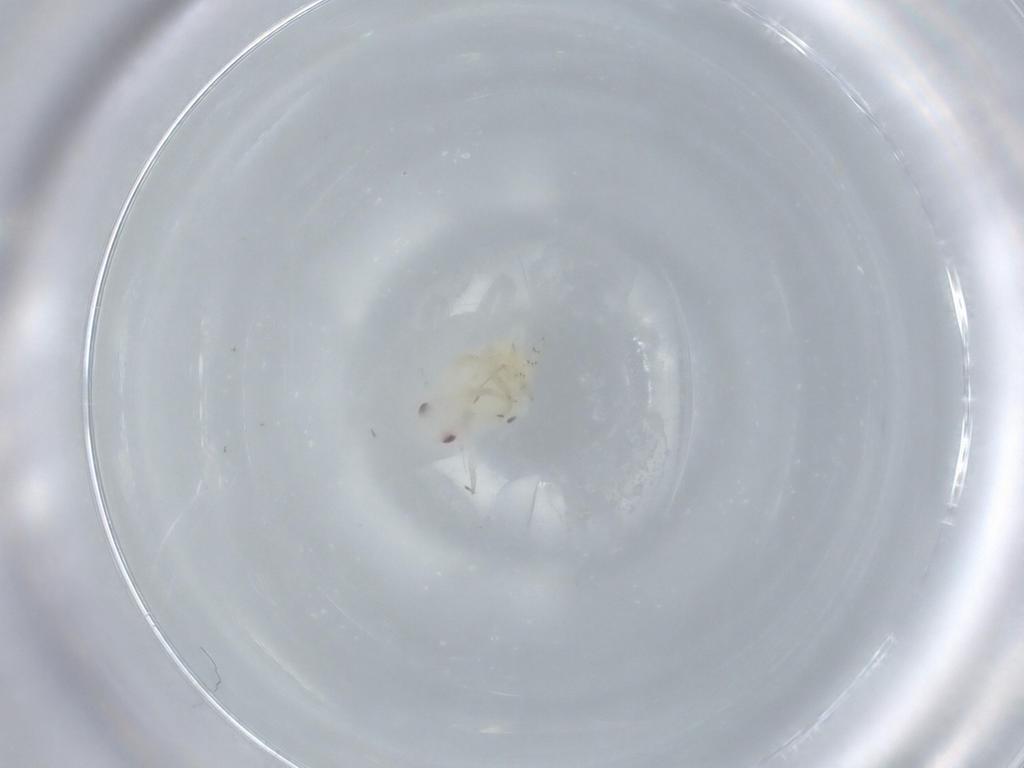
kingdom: Animalia
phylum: Arthropoda
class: Insecta
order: Hemiptera
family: Flatidae
